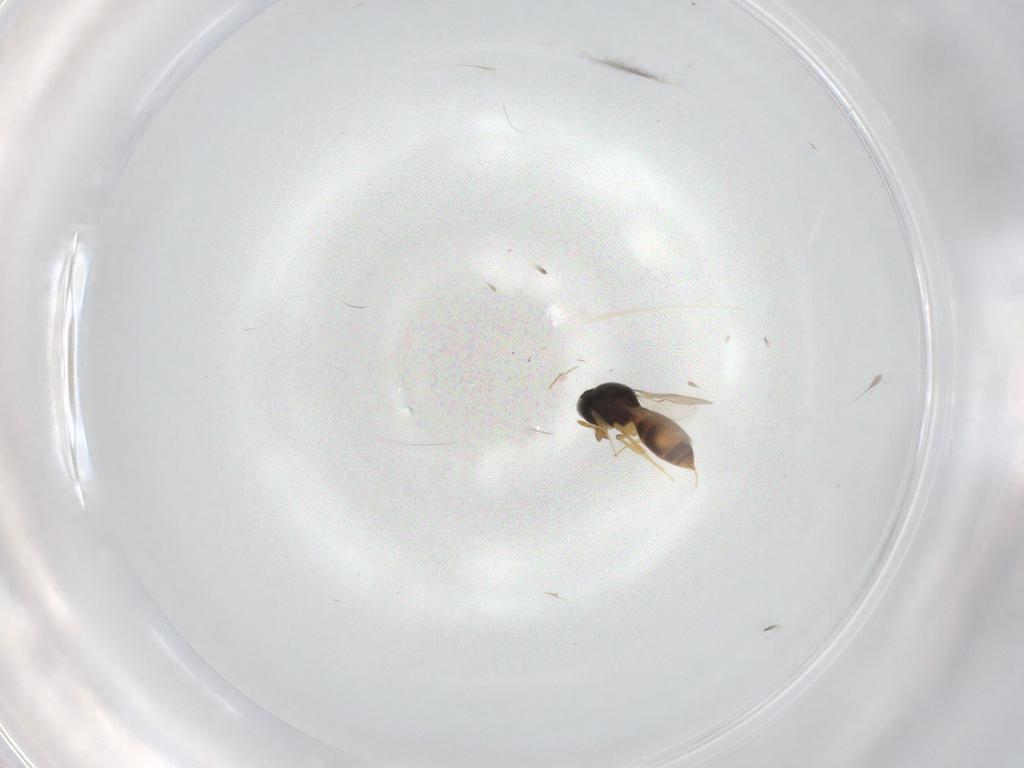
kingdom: Animalia
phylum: Arthropoda
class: Insecta
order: Hymenoptera
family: Scelionidae
